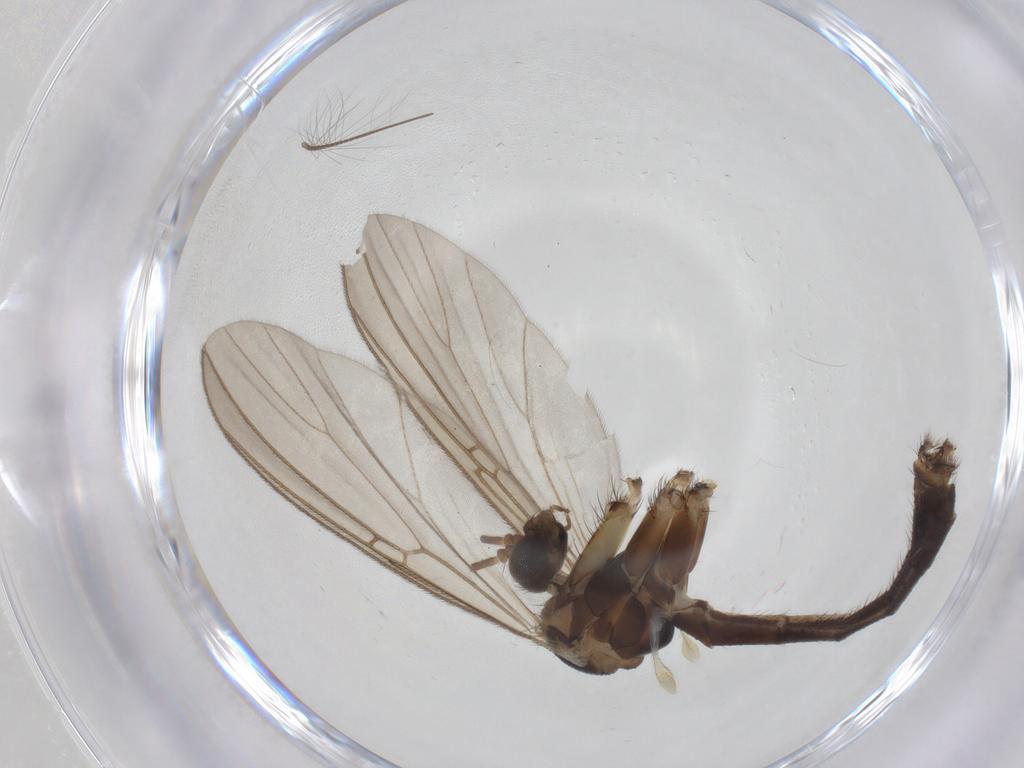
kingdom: Animalia
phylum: Arthropoda
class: Insecta
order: Diptera
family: Mycetophilidae
